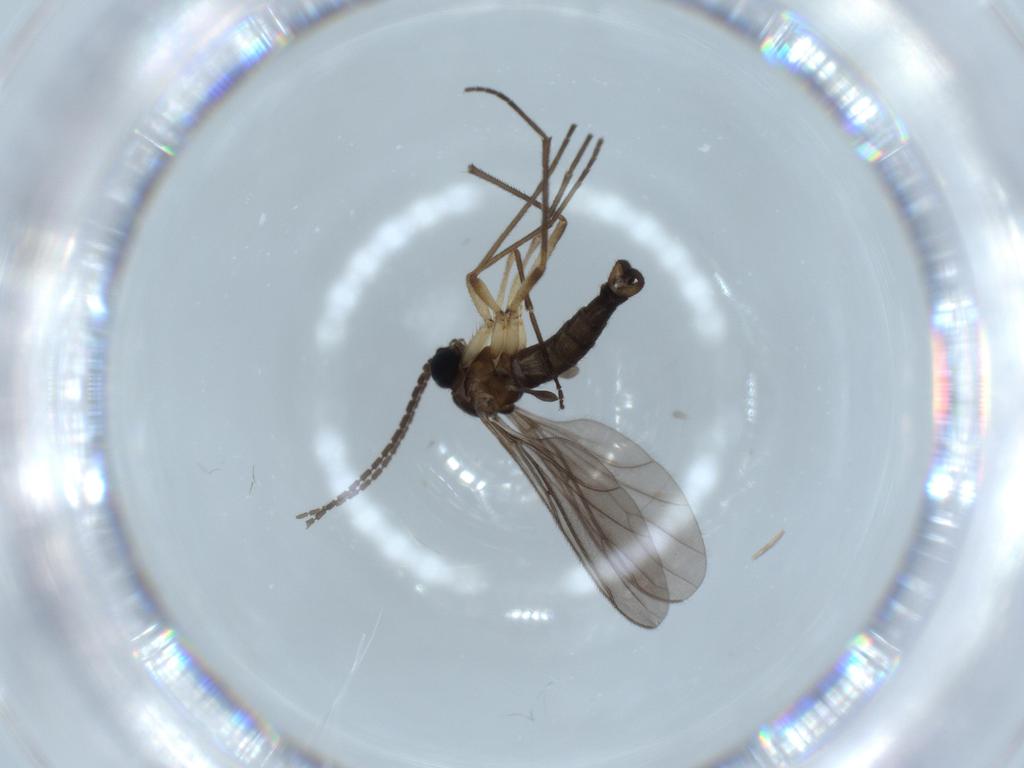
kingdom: Animalia
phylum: Arthropoda
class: Insecta
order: Diptera
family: Sciaridae
